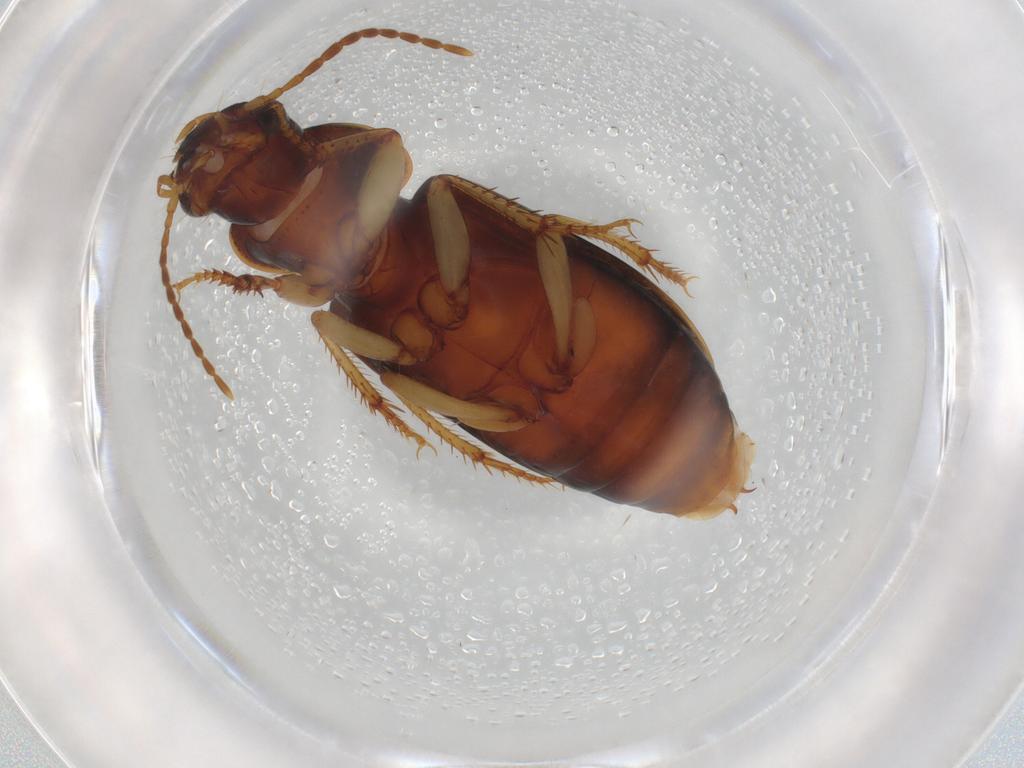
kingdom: Animalia
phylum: Arthropoda
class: Insecta
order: Coleoptera
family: Carabidae
